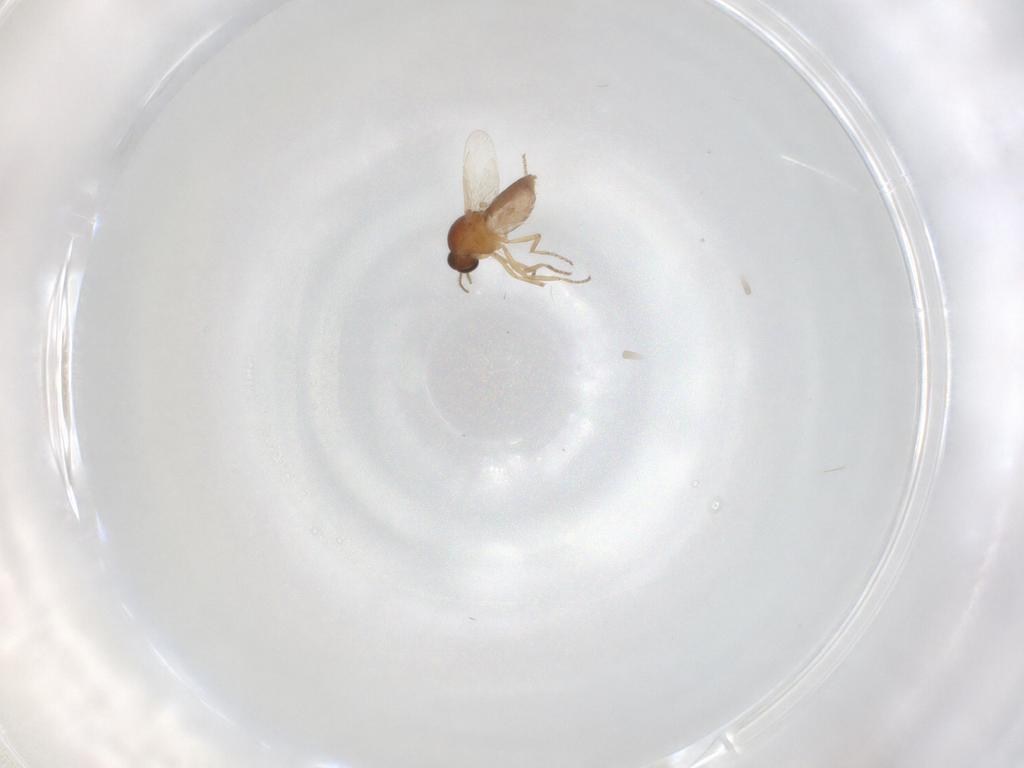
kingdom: Animalia
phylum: Arthropoda
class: Insecta
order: Diptera
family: Ceratopogonidae
